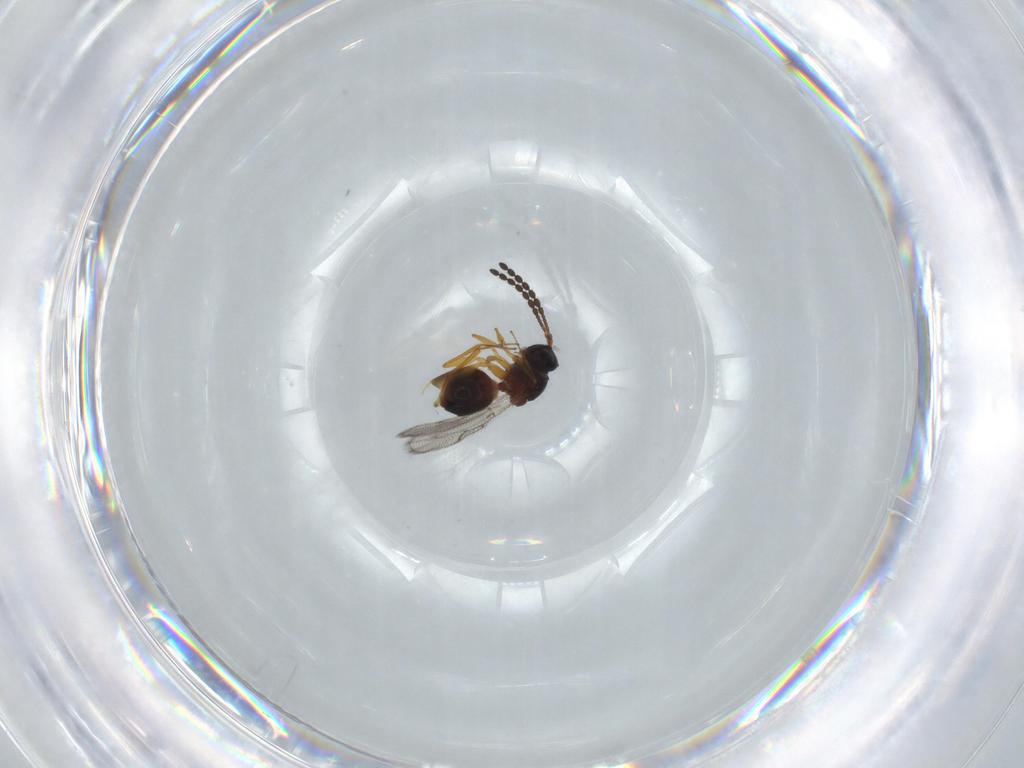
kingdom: Animalia
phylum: Arthropoda
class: Insecta
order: Hymenoptera
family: Figitidae
